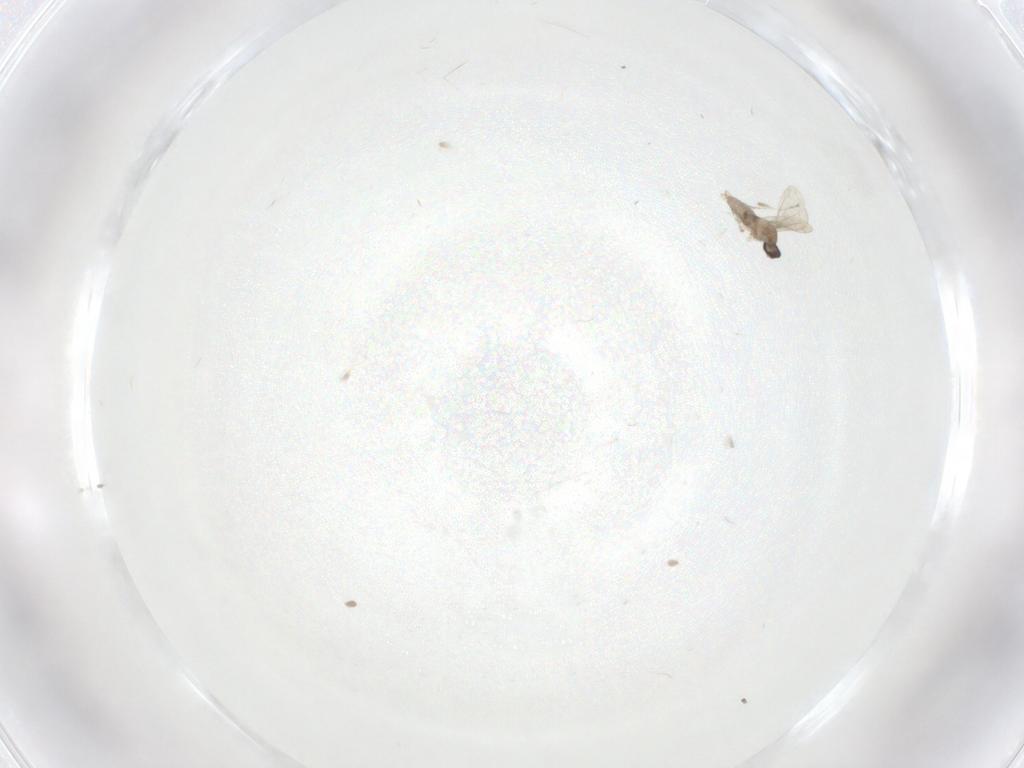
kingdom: Animalia
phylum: Arthropoda
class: Insecta
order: Diptera
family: Cecidomyiidae
